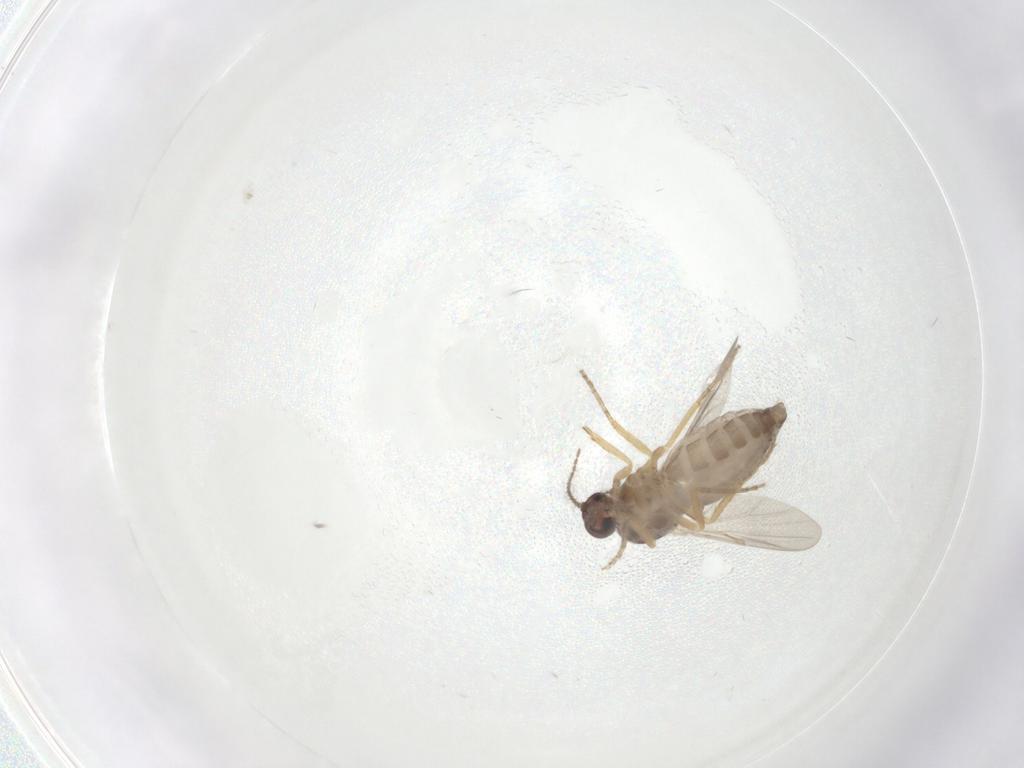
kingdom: Animalia
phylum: Arthropoda
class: Insecta
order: Diptera
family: Ceratopogonidae
